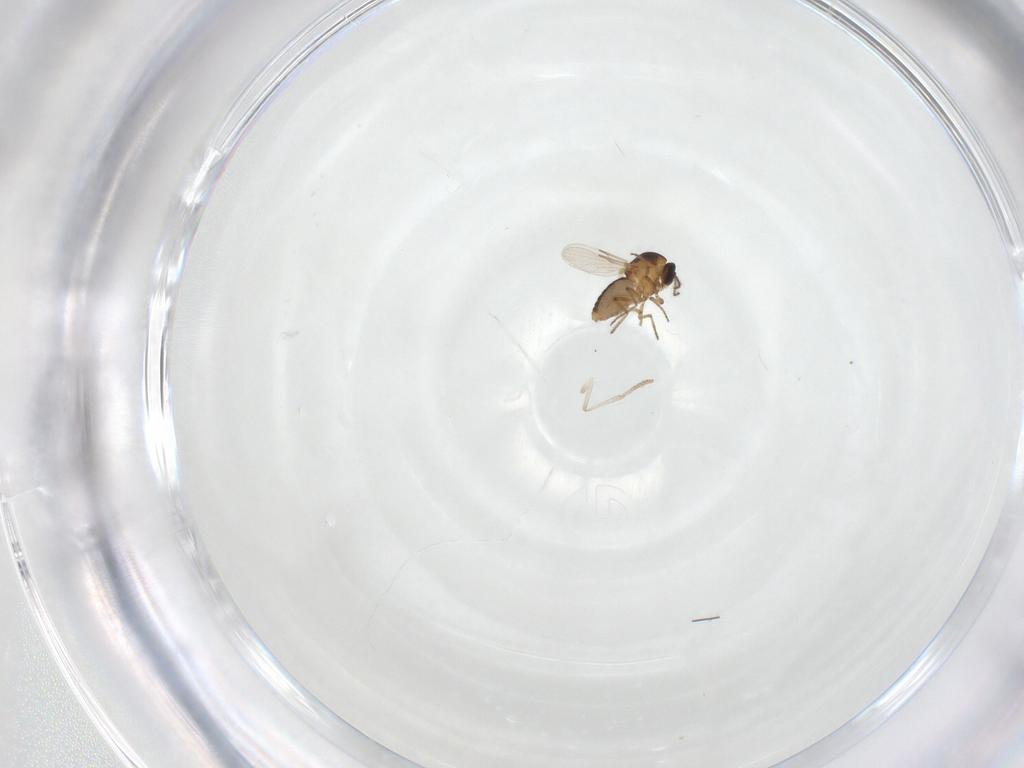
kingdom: Animalia
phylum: Arthropoda
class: Insecta
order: Diptera
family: Psychodidae
